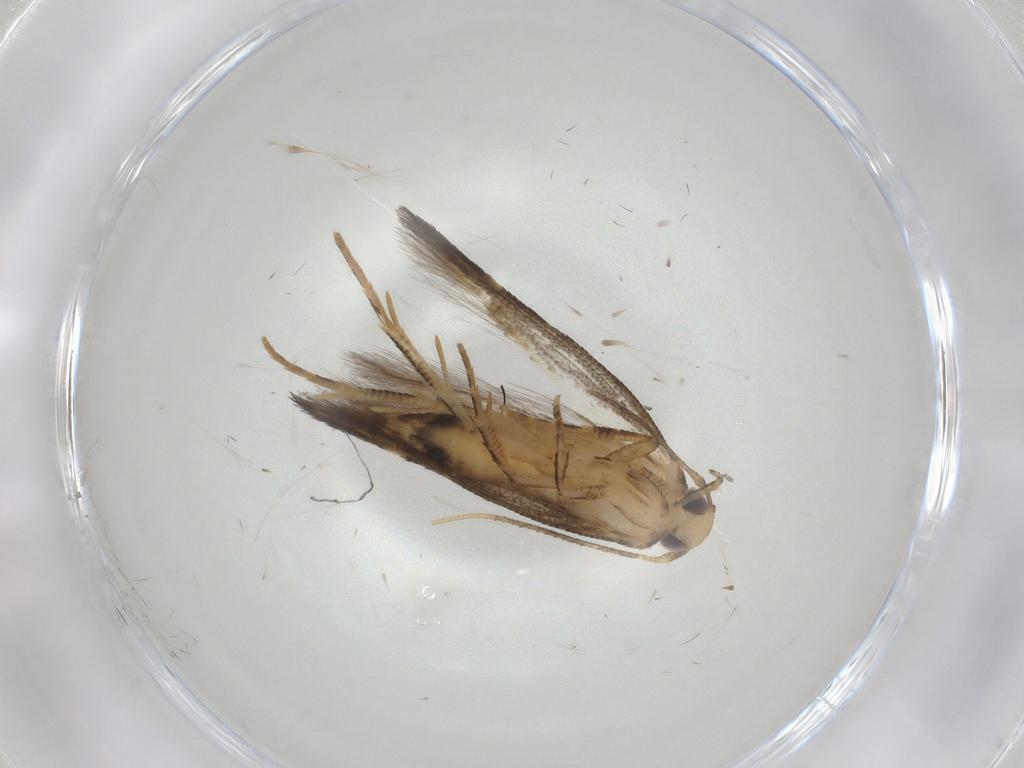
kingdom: Animalia
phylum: Arthropoda
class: Insecta
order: Lepidoptera
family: Cosmopterigidae
